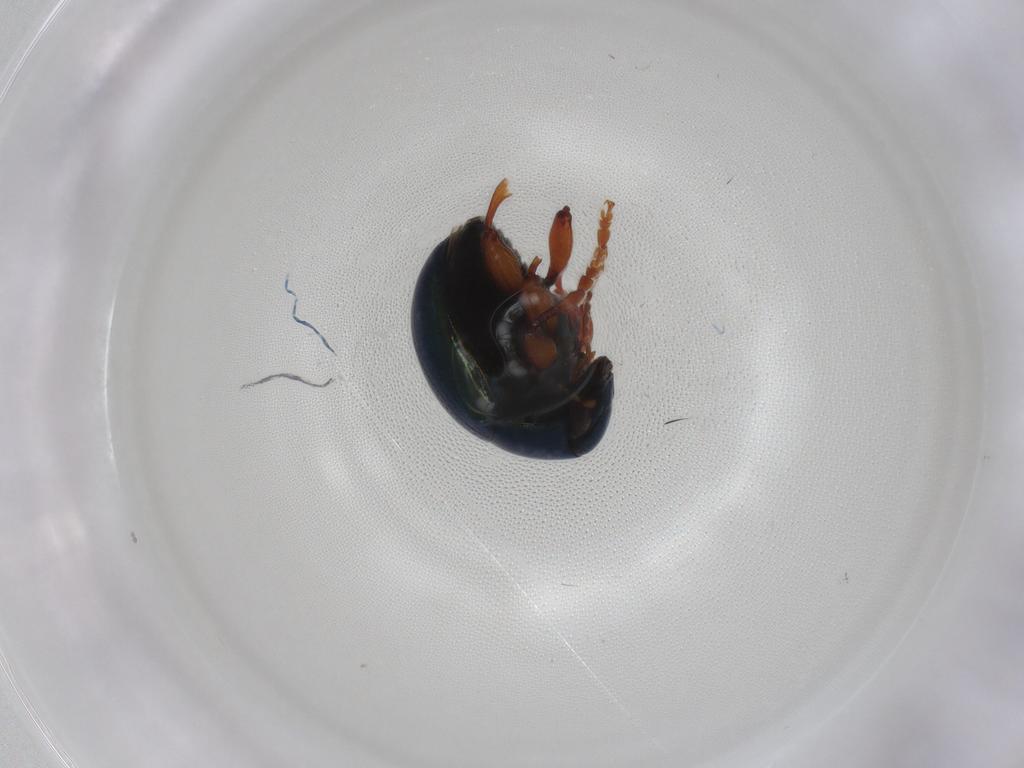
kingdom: Animalia
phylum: Arthropoda
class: Insecta
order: Coleoptera
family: Chrysomelidae
